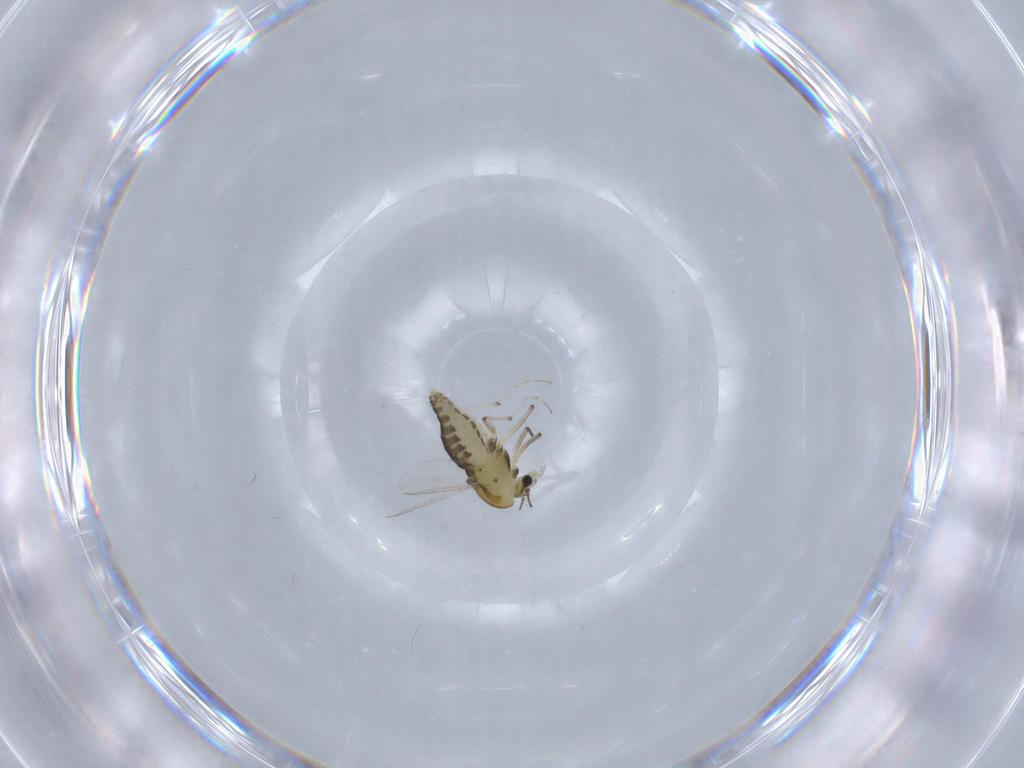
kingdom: Animalia
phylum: Arthropoda
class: Insecta
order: Diptera
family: Chironomidae
